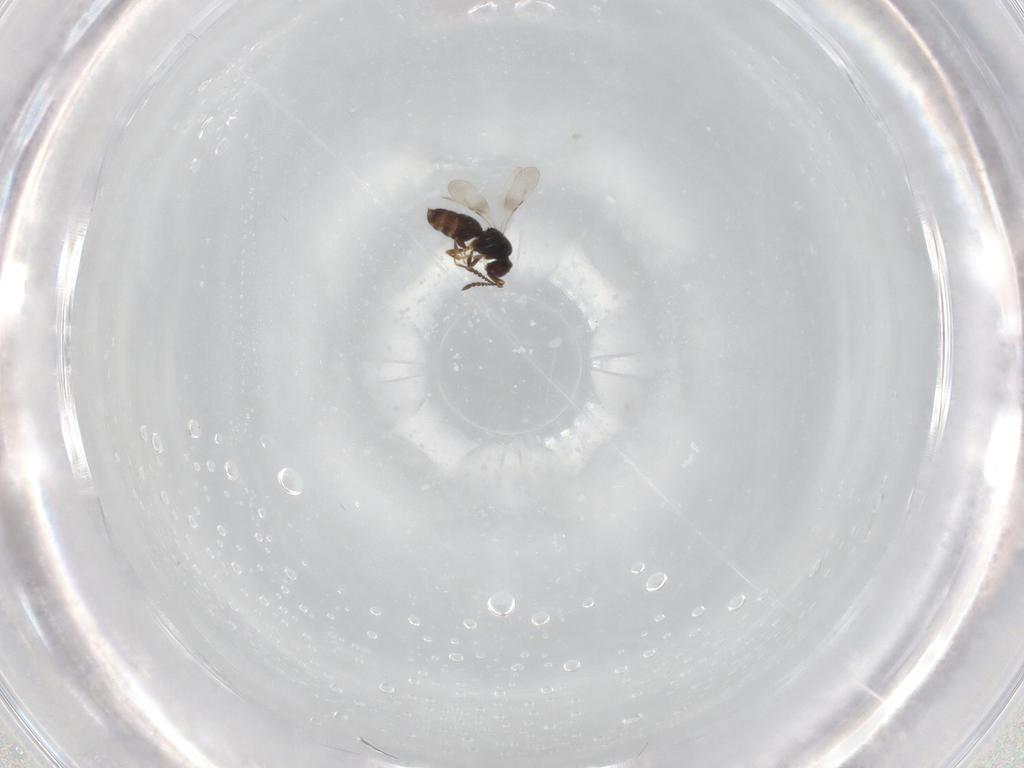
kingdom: Animalia
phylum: Arthropoda
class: Insecta
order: Hymenoptera
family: Ceraphronidae
